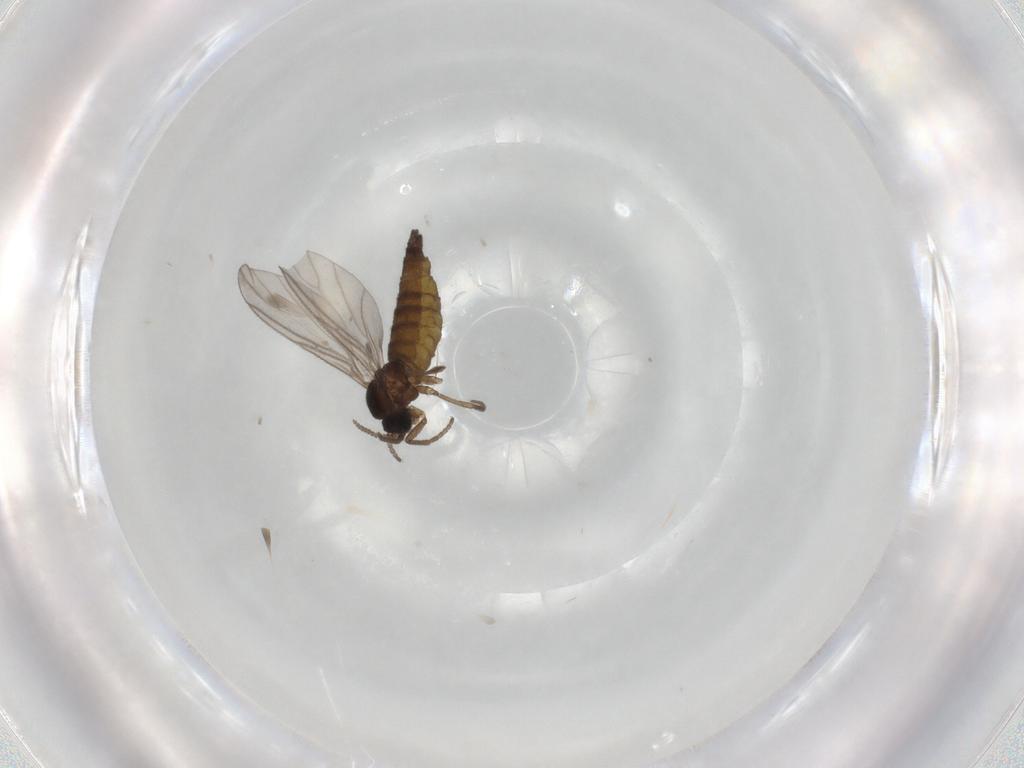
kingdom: Animalia
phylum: Arthropoda
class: Insecta
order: Diptera
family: Sciaridae
